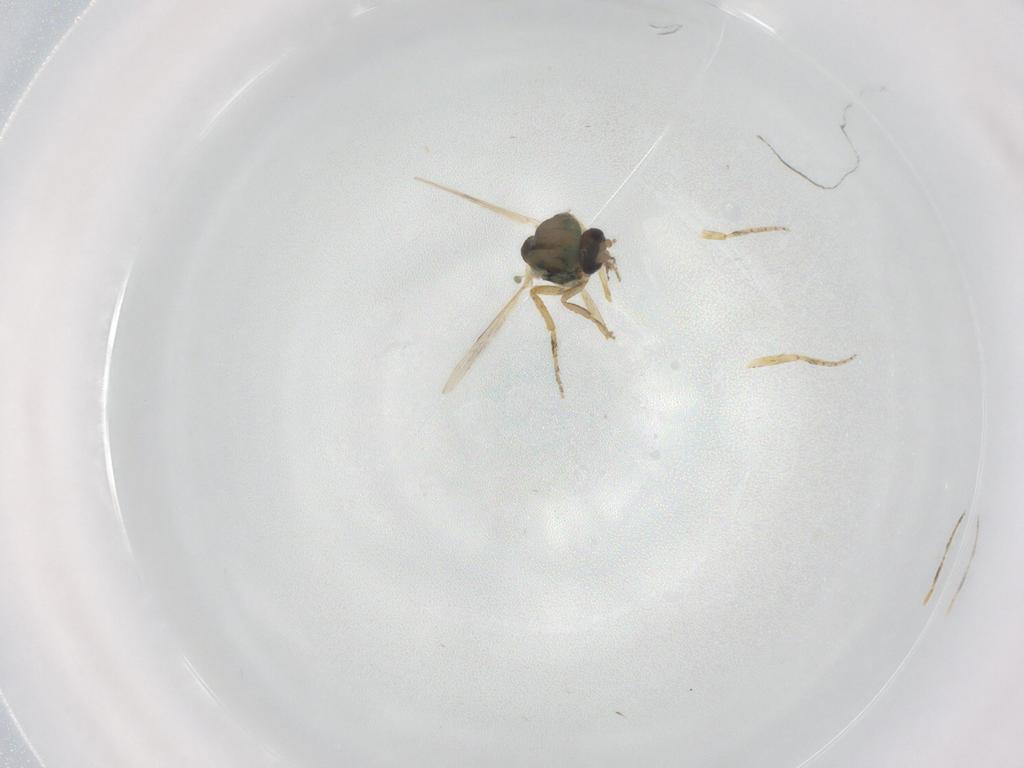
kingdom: Animalia
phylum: Arthropoda
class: Insecta
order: Diptera
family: Ceratopogonidae
